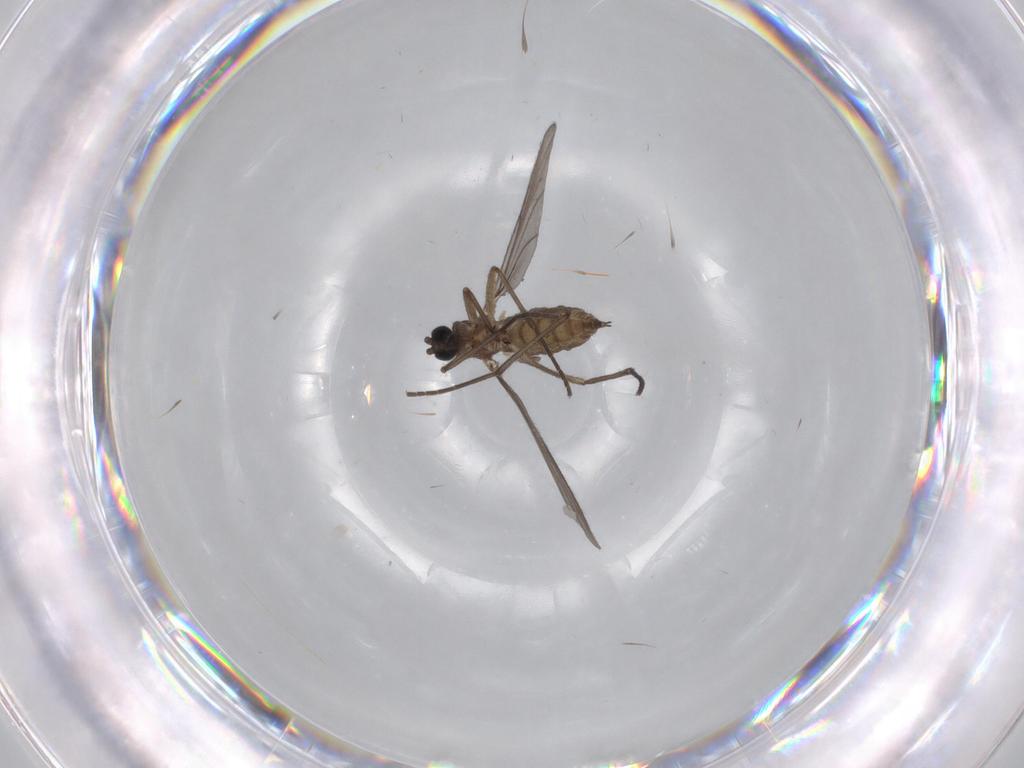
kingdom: Animalia
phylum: Arthropoda
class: Insecta
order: Diptera
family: Sciaridae
